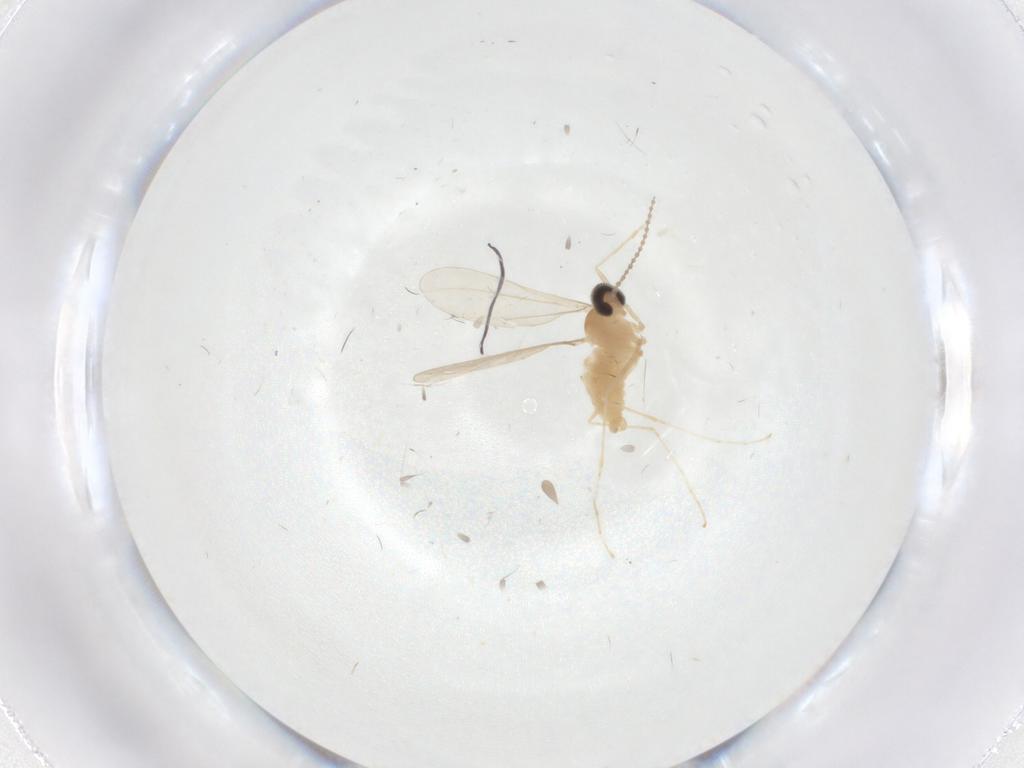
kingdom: Animalia
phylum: Arthropoda
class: Insecta
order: Diptera
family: Cecidomyiidae
